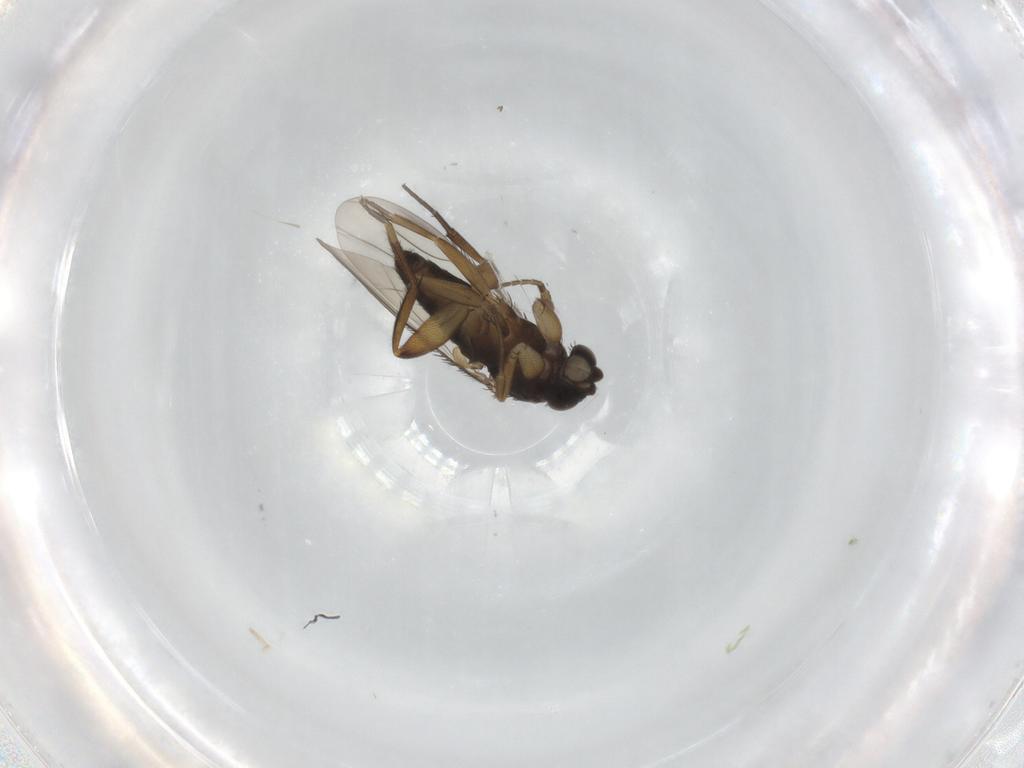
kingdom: Animalia
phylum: Arthropoda
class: Insecta
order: Diptera
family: Phoridae
